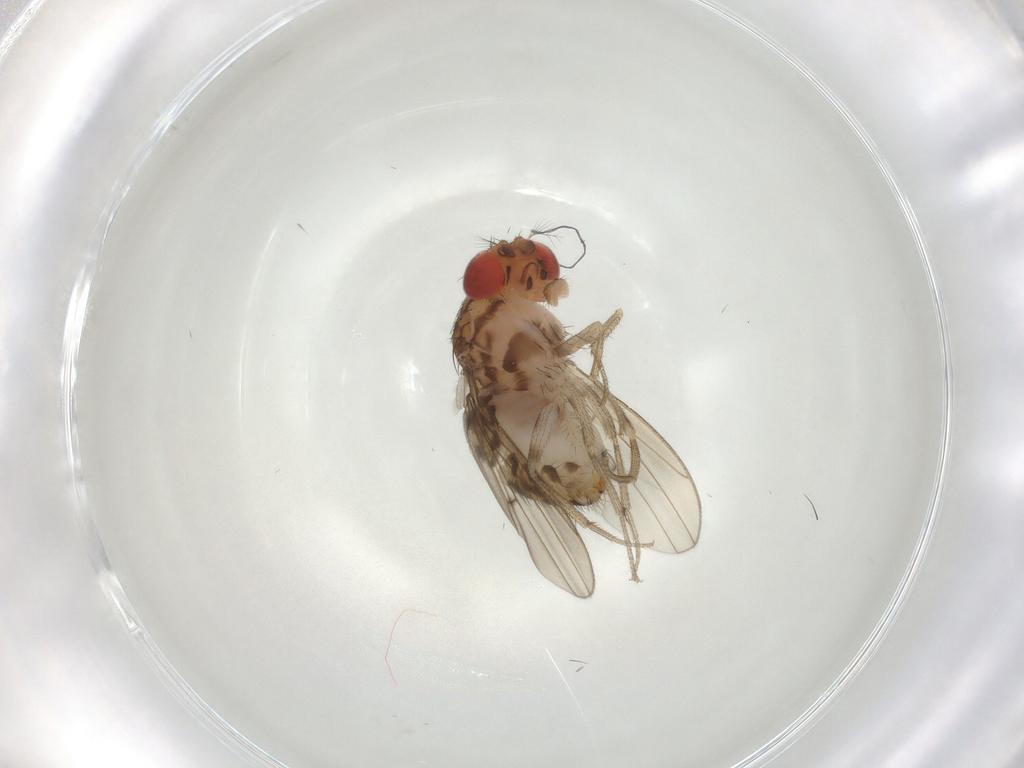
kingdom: Animalia
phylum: Arthropoda
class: Insecta
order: Diptera
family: Drosophilidae
